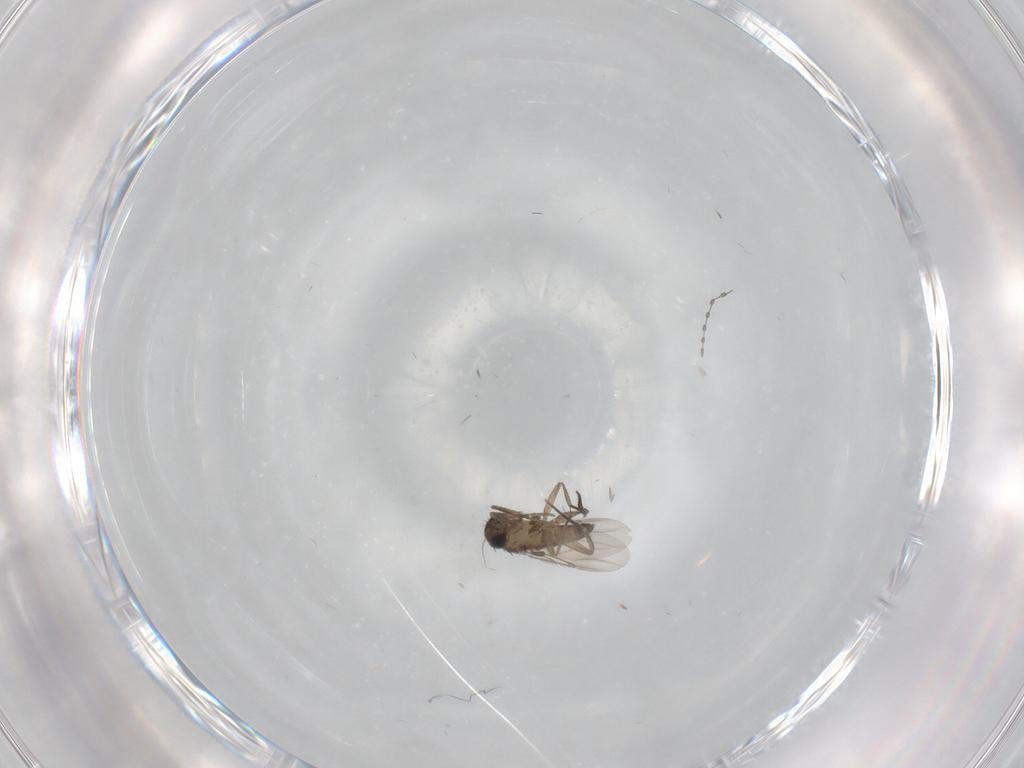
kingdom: Animalia
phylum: Arthropoda
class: Insecta
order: Diptera
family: Phoridae
